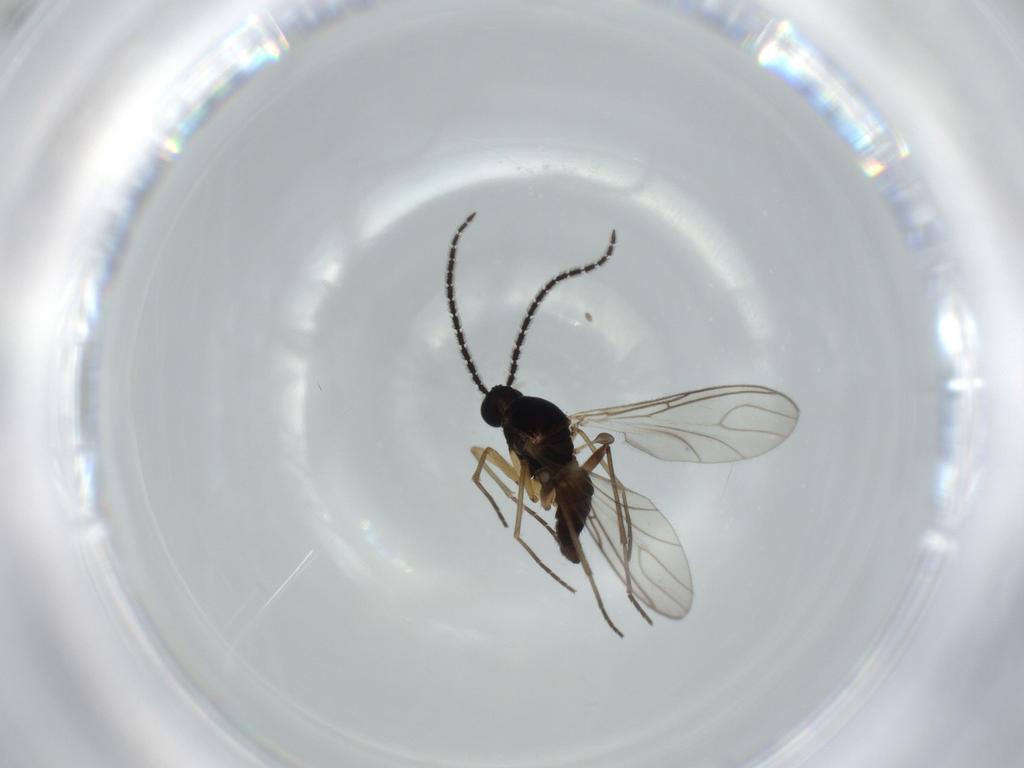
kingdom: Animalia
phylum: Arthropoda
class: Insecta
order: Diptera
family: Sciaridae
